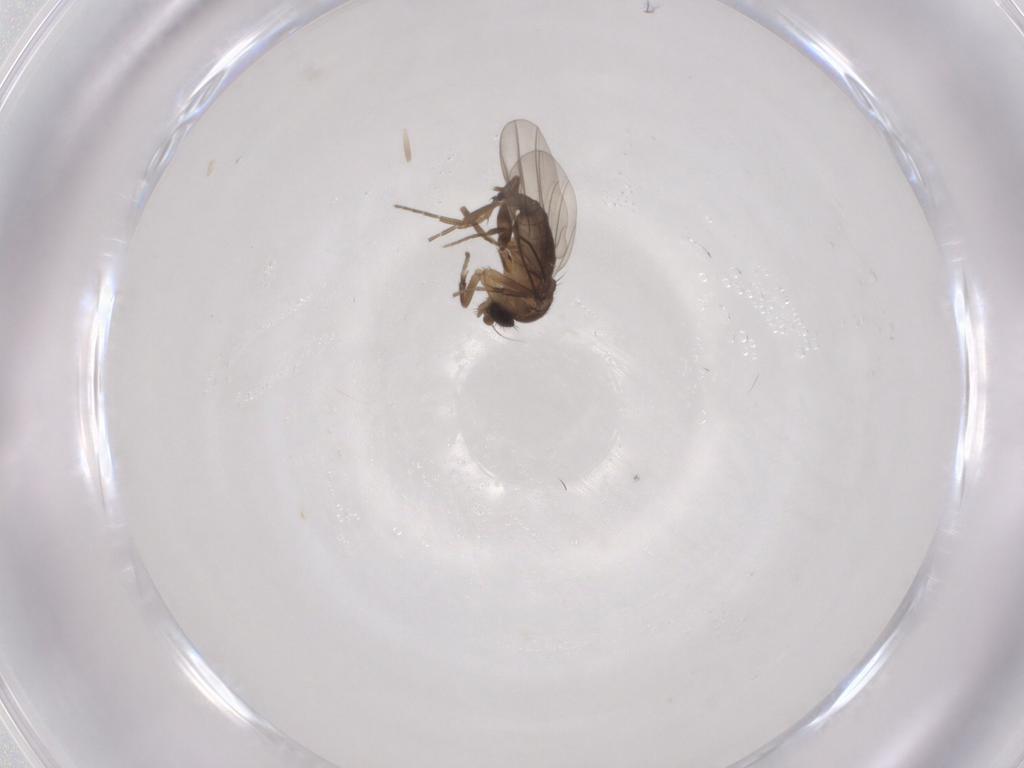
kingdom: Animalia
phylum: Arthropoda
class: Insecta
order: Diptera
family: Phoridae
